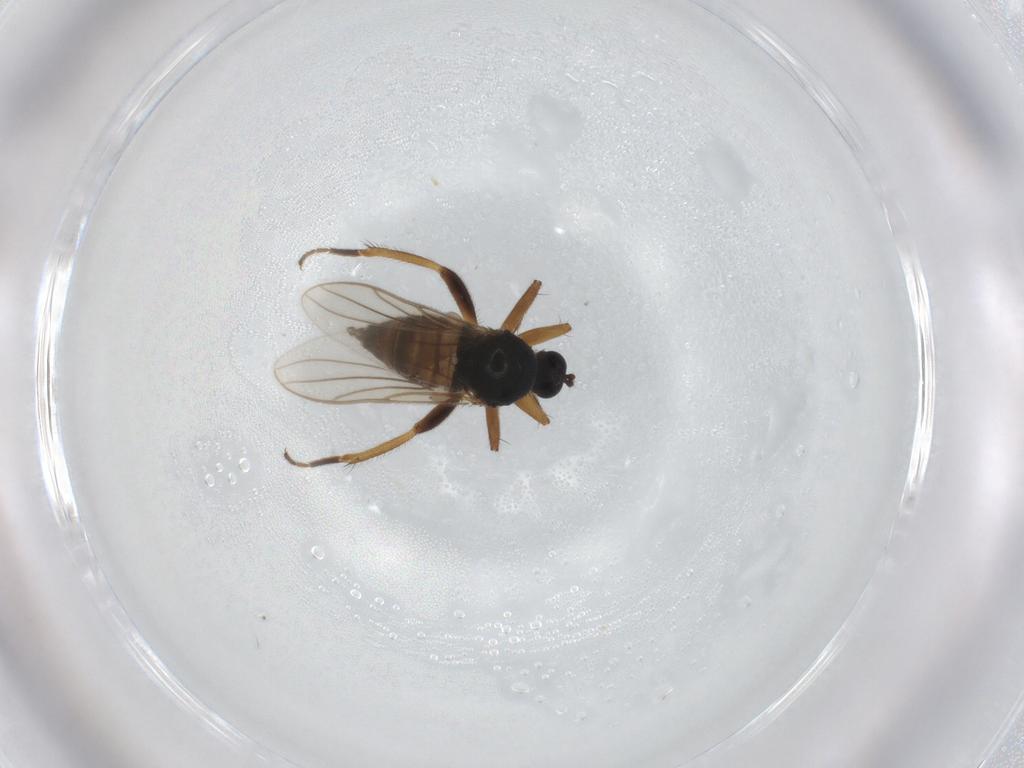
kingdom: Animalia
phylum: Arthropoda
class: Insecta
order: Diptera
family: Hybotidae
